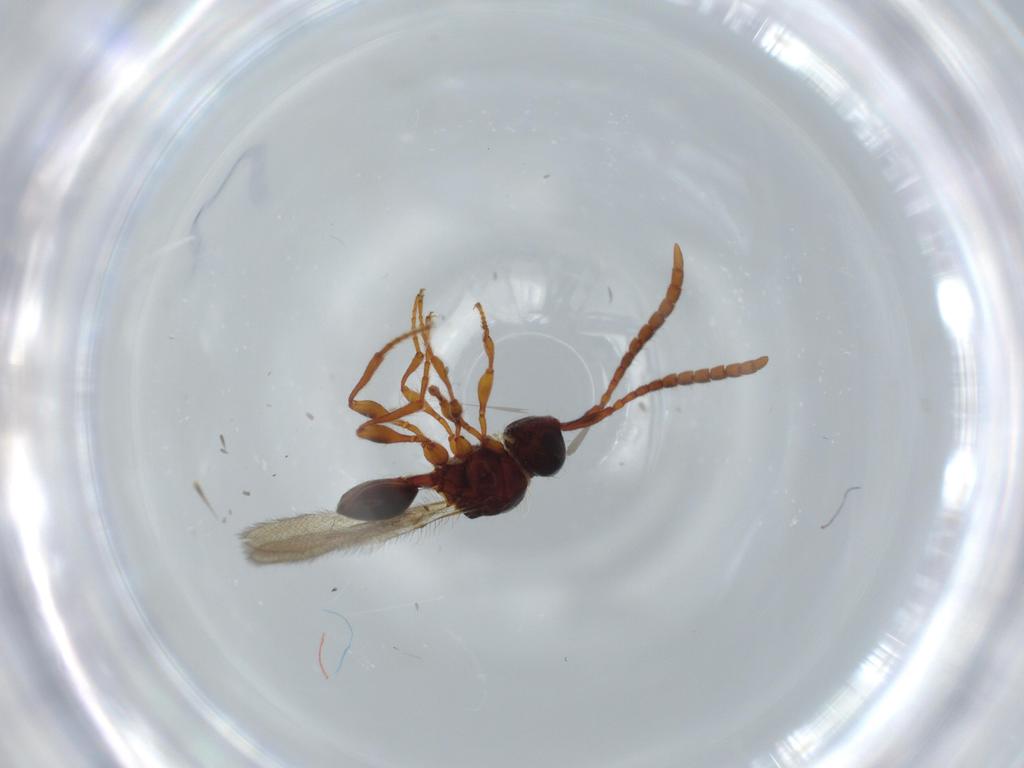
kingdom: Animalia
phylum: Arthropoda
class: Insecta
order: Hymenoptera
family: Diapriidae
